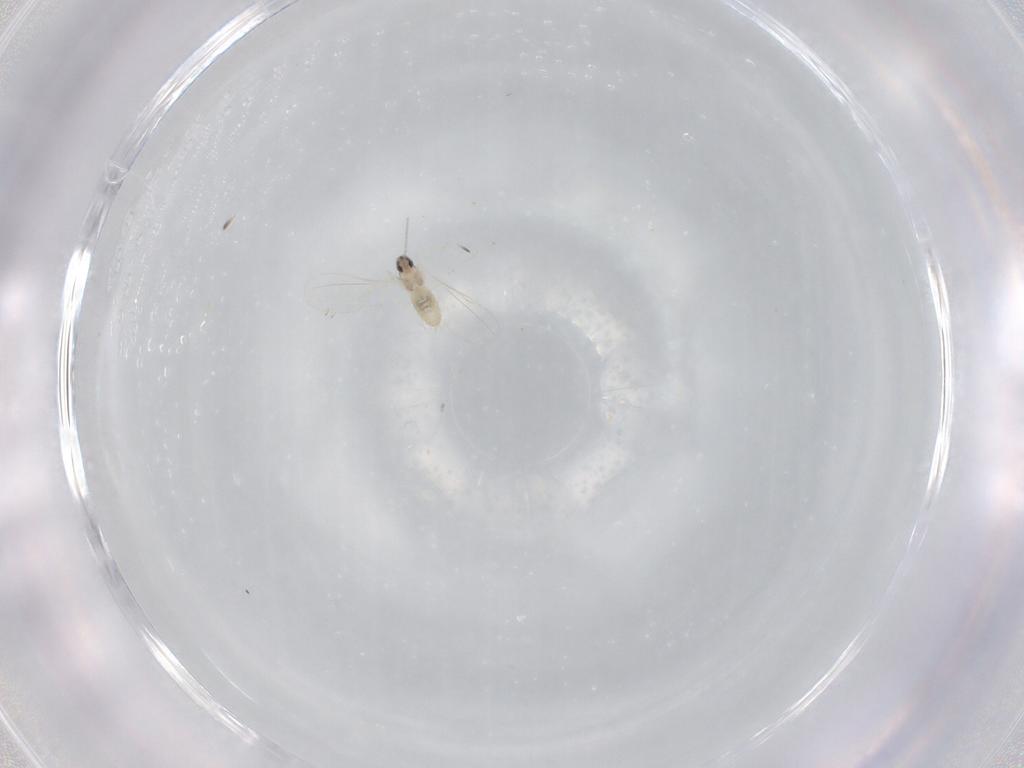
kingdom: Animalia
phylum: Arthropoda
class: Insecta
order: Diptera
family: Cecidomyiidae
